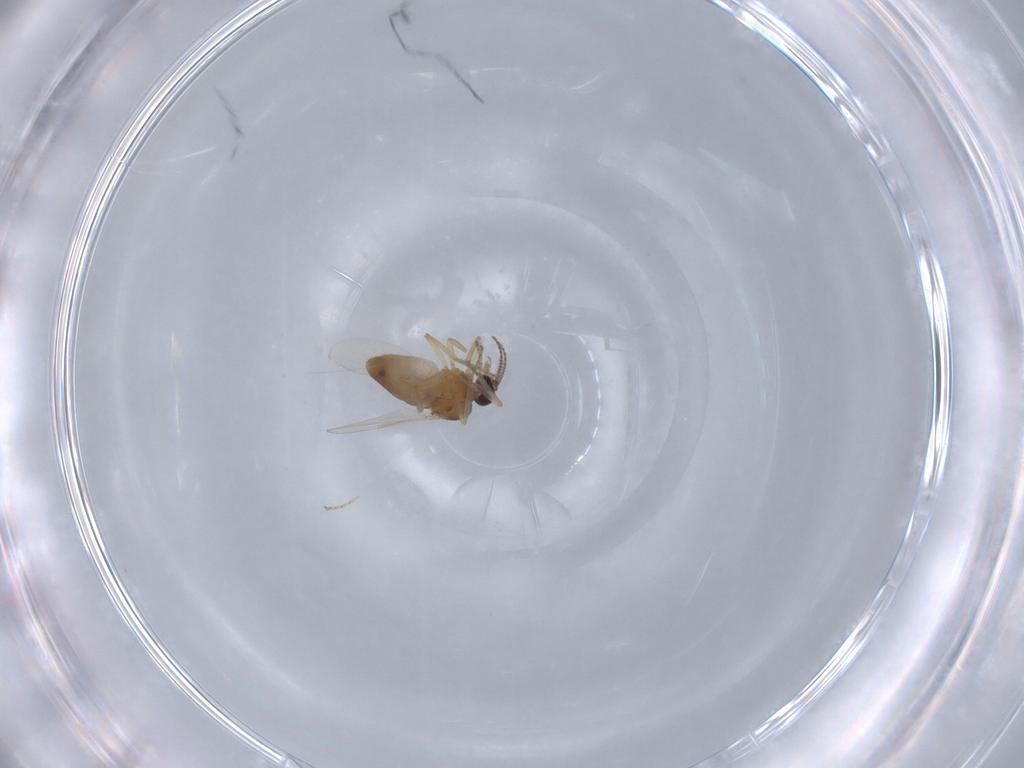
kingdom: Animalia
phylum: Arthropoda
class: Insecta
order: Diptera
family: Ceratopogonidae
